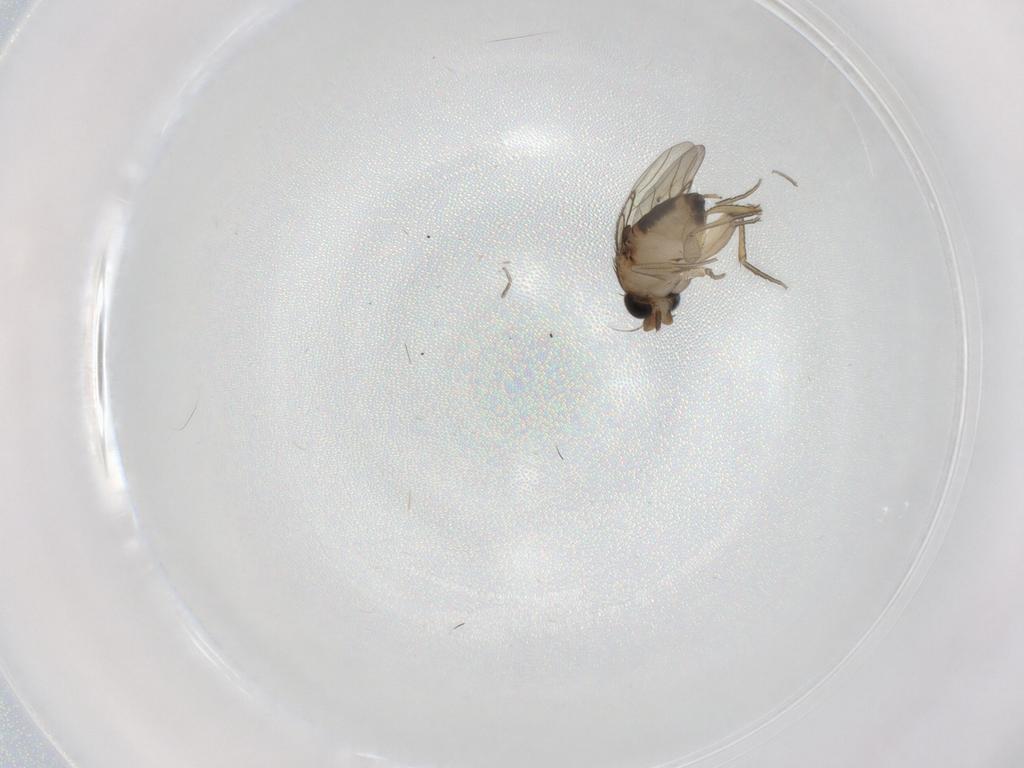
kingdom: Animalia
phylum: Arthropoda
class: Insecta
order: Diptera
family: Phoridae
